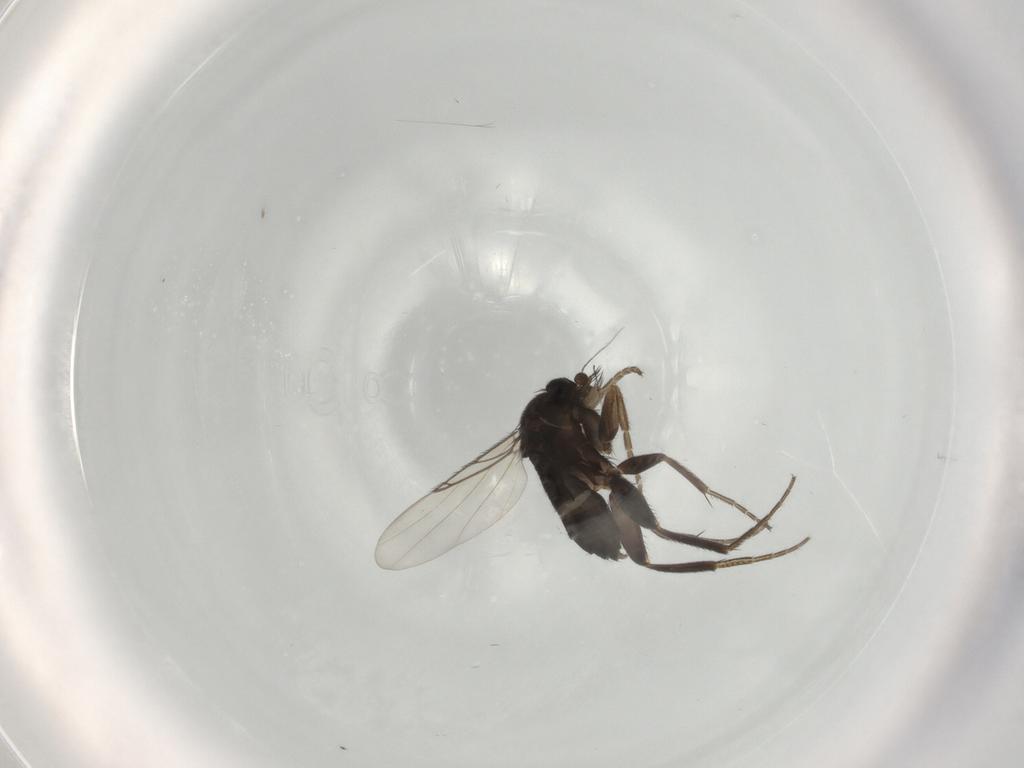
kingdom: Animalia
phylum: Arthropoda
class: Insecta
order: Diptera
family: Phoridae
